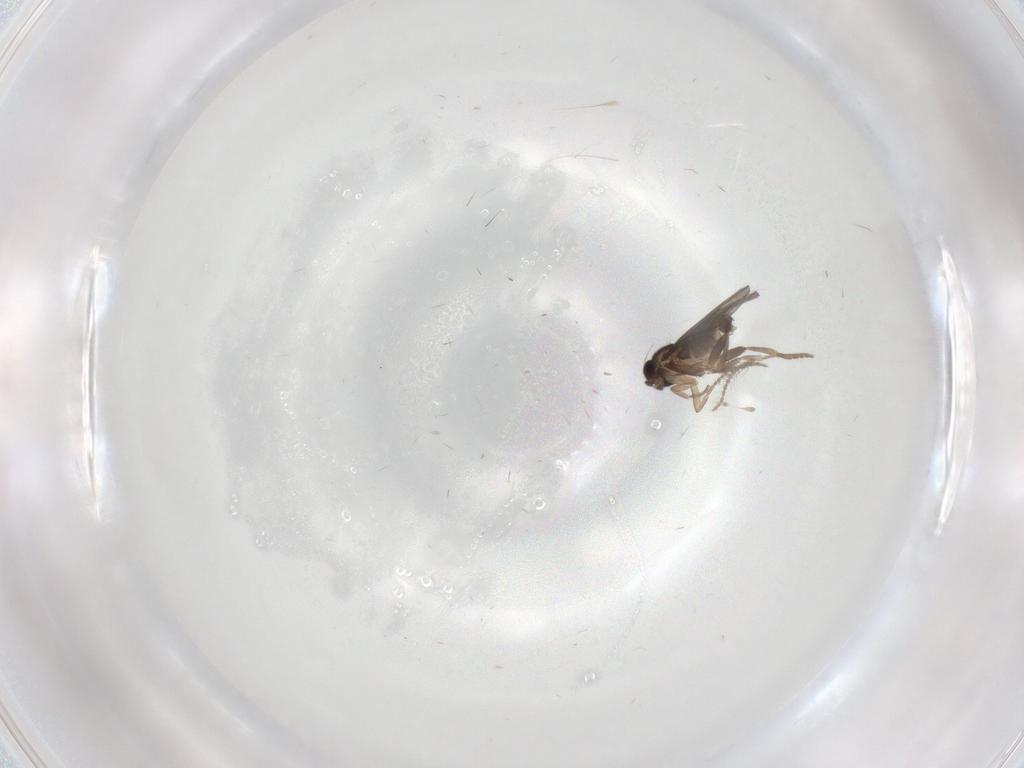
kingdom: Animalia
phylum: Arthropoda
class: Insecta
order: Diptera
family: Ceratopogonidae
